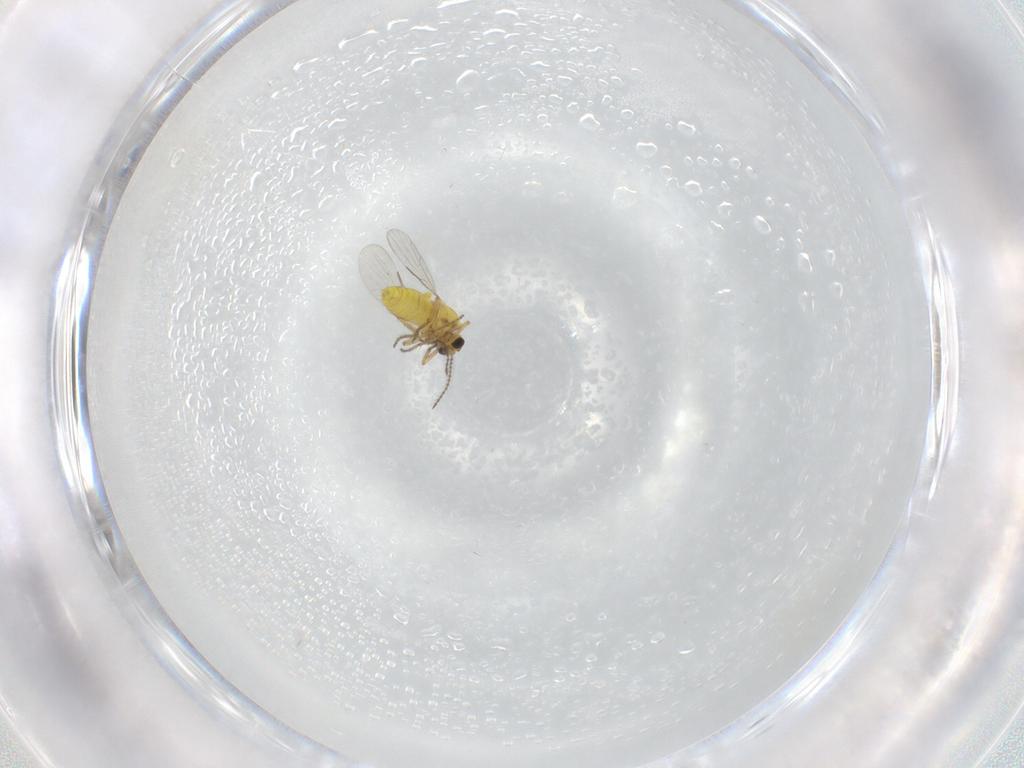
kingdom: Animalia
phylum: Arthropoda
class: Insecta
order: Diptera
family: Ceratopogonidae
